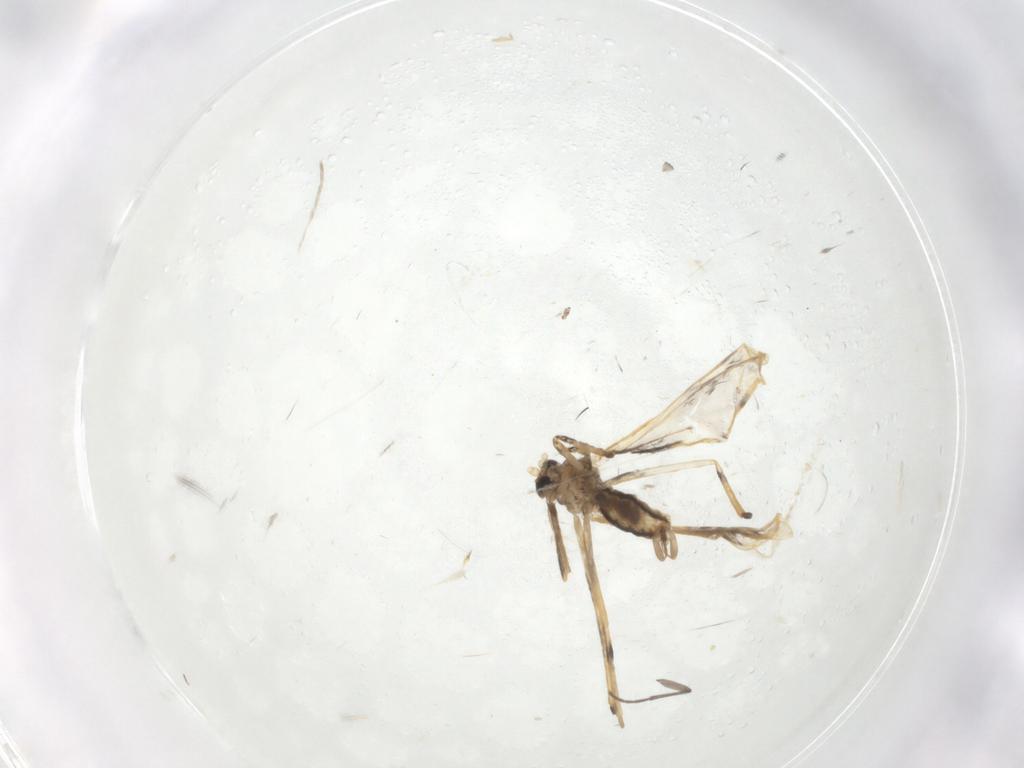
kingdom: Animalia
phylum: Arthropoda
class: Insecta
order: Diptera
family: Cecidomyiidae
